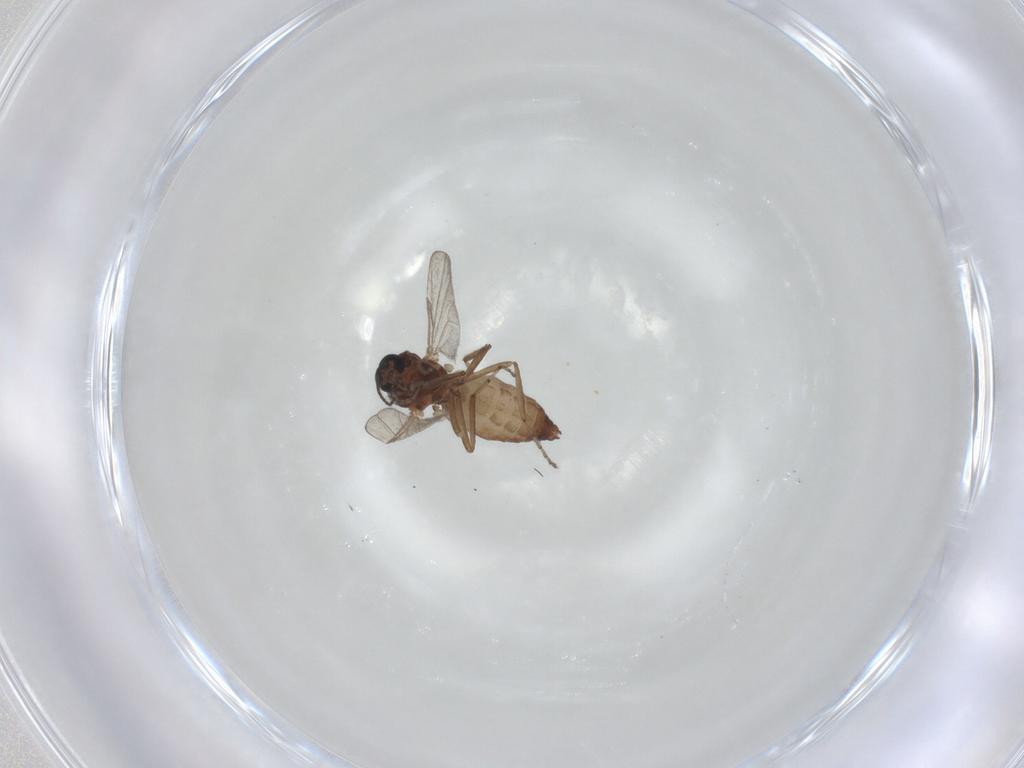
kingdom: Animalia
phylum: Arthropoda
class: Insecta
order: Diptera
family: Ceratopogonidae
